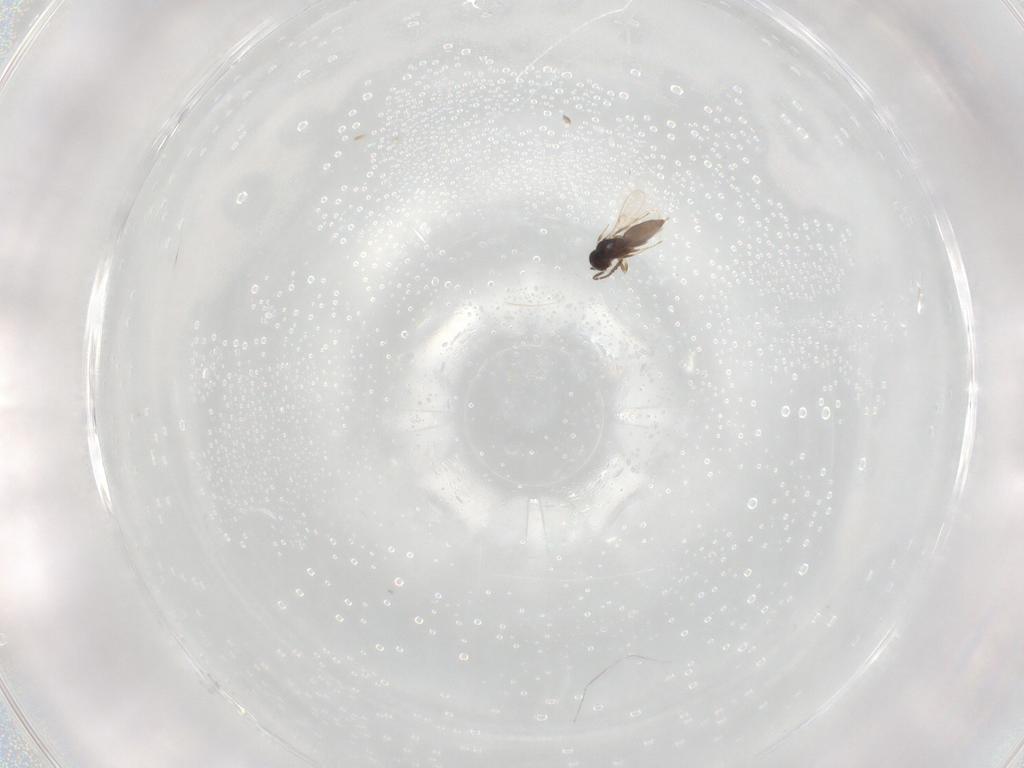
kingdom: Animalia
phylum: Arthropoda
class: Insecta
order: Hymenoptera
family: Scelionidae
